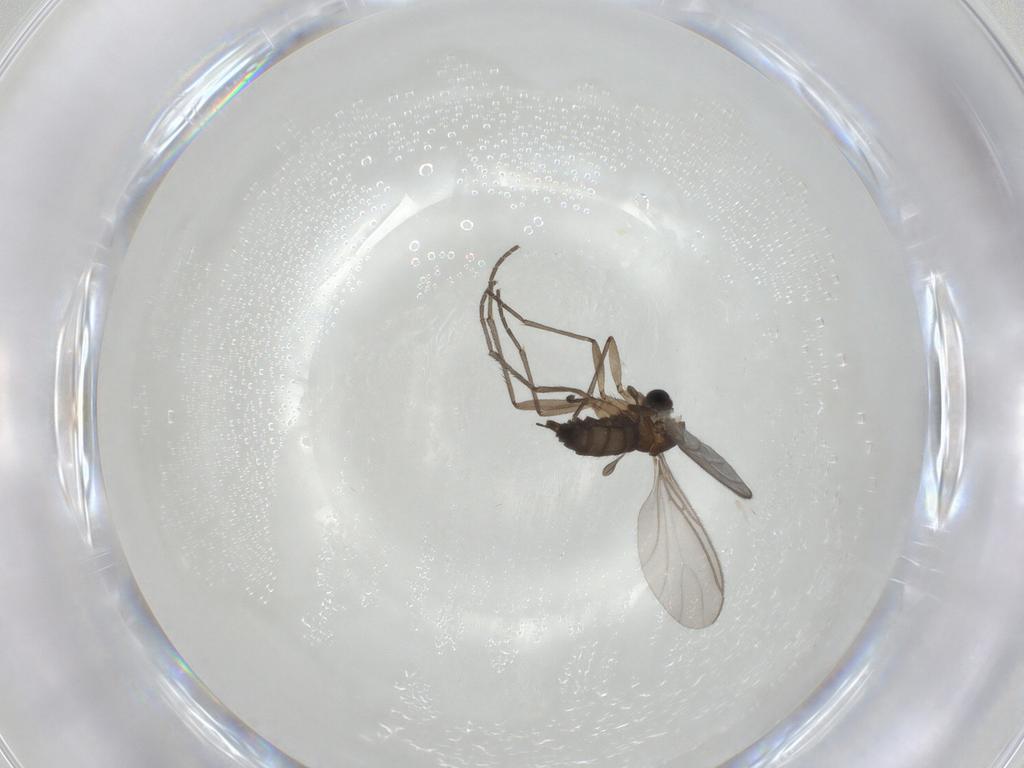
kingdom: Animalia
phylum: Arthropoda
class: Insecta
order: Diptera
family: Sciaridae
